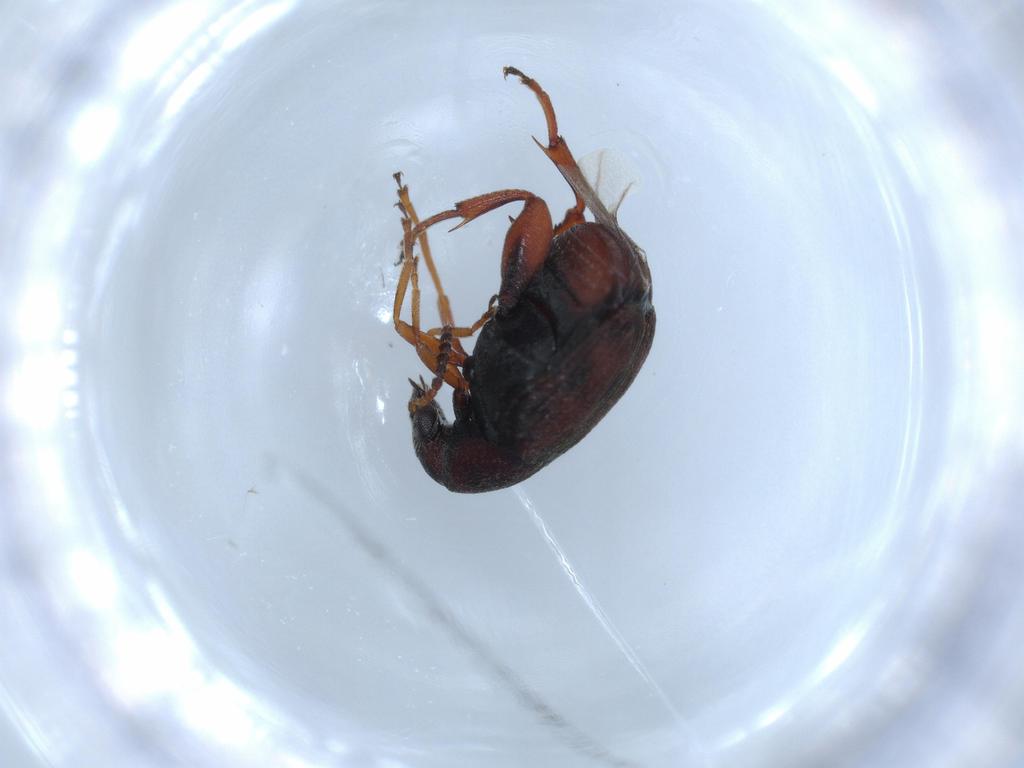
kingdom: Animalia
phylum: Arthropoda
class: Insecta
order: Coleoptera
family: Chrysomelidae
